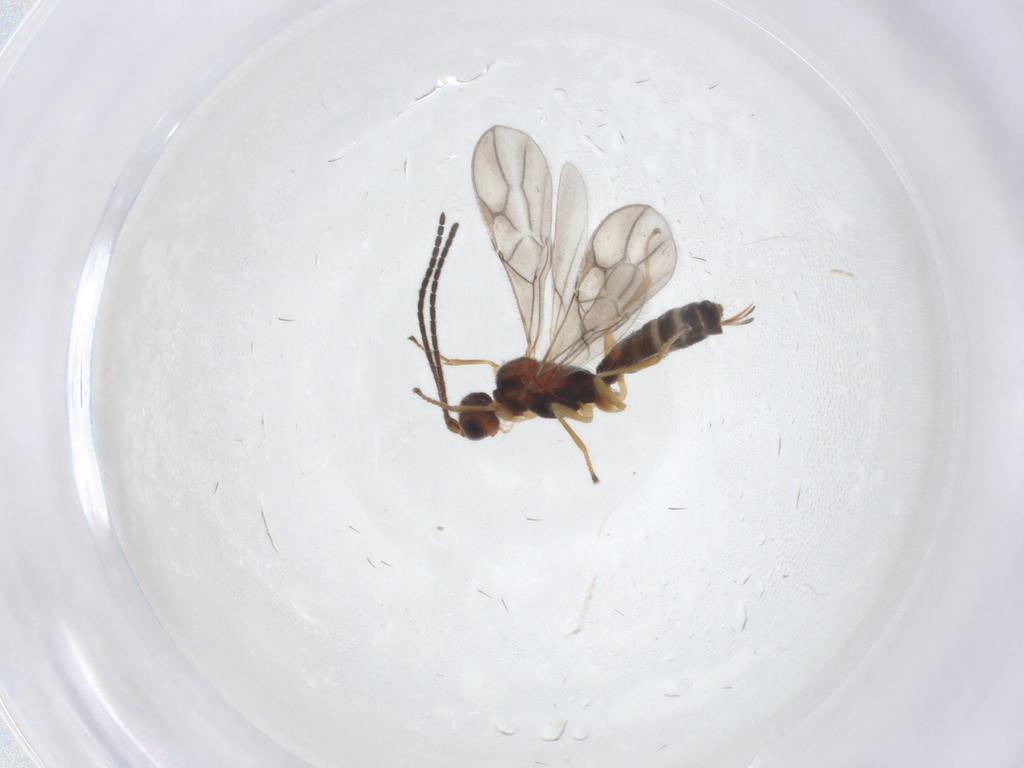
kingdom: Animalia
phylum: Arthropoda
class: Insecta
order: Hymenoptera
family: Braconidae
